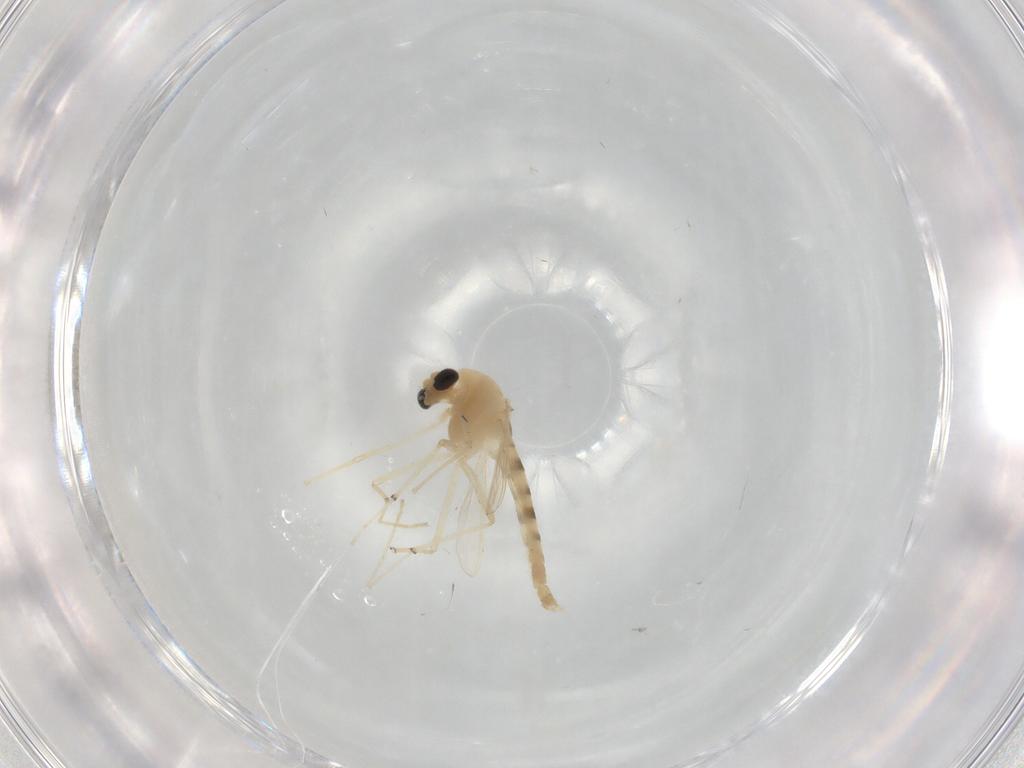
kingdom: Animalia
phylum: Arthropoda
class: Insecta
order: Diptera
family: Chironomidae
